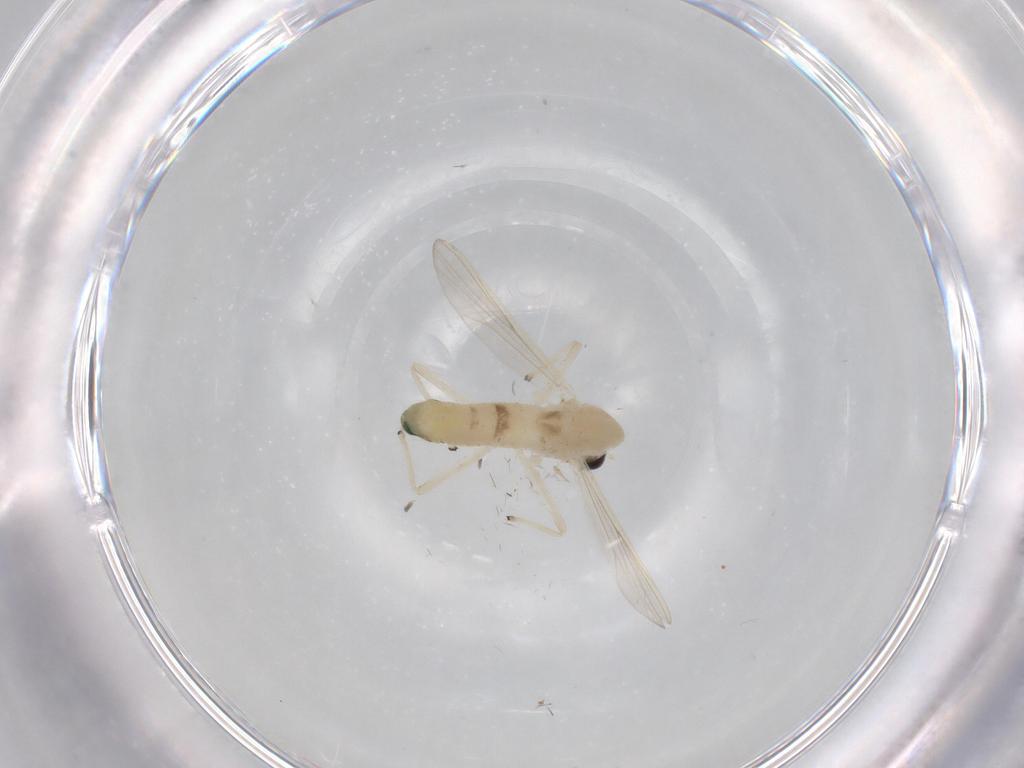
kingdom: Animalia
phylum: Arthropoda
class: Insecta
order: Diptera
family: Chironomidae
